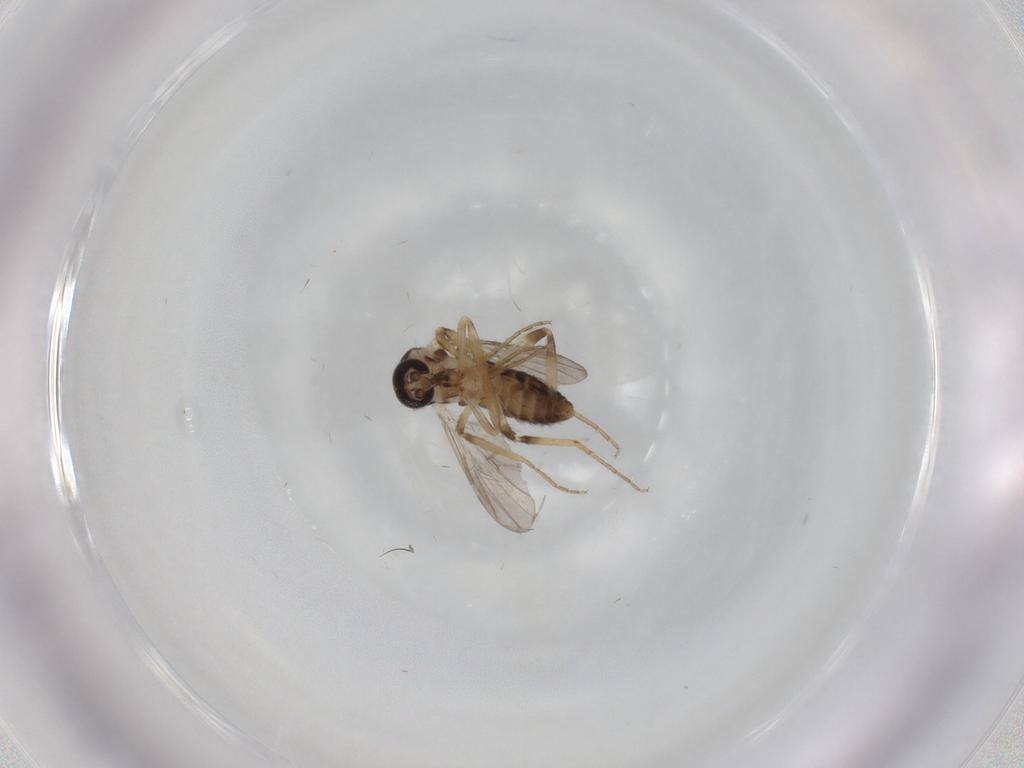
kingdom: Animalia
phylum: Arthropoda
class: Insecta
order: Diptera
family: Ceratopogonidae
